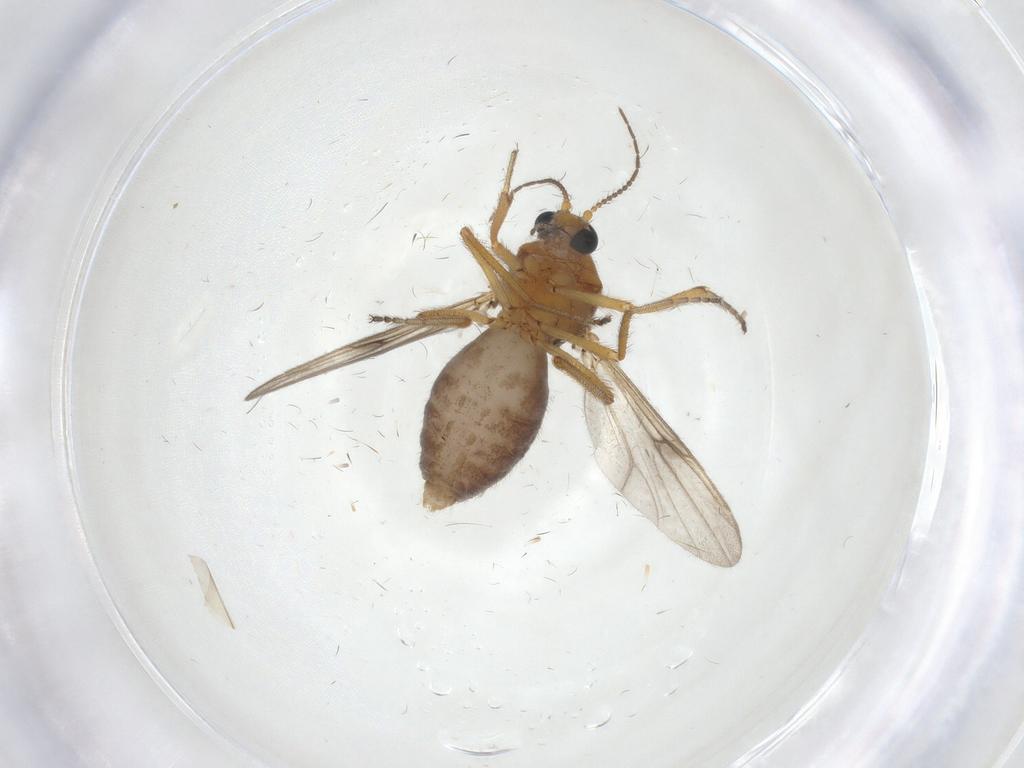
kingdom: Animalia
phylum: Arthropoda
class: Insecta
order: Diptera
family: Ceratopogonidae
